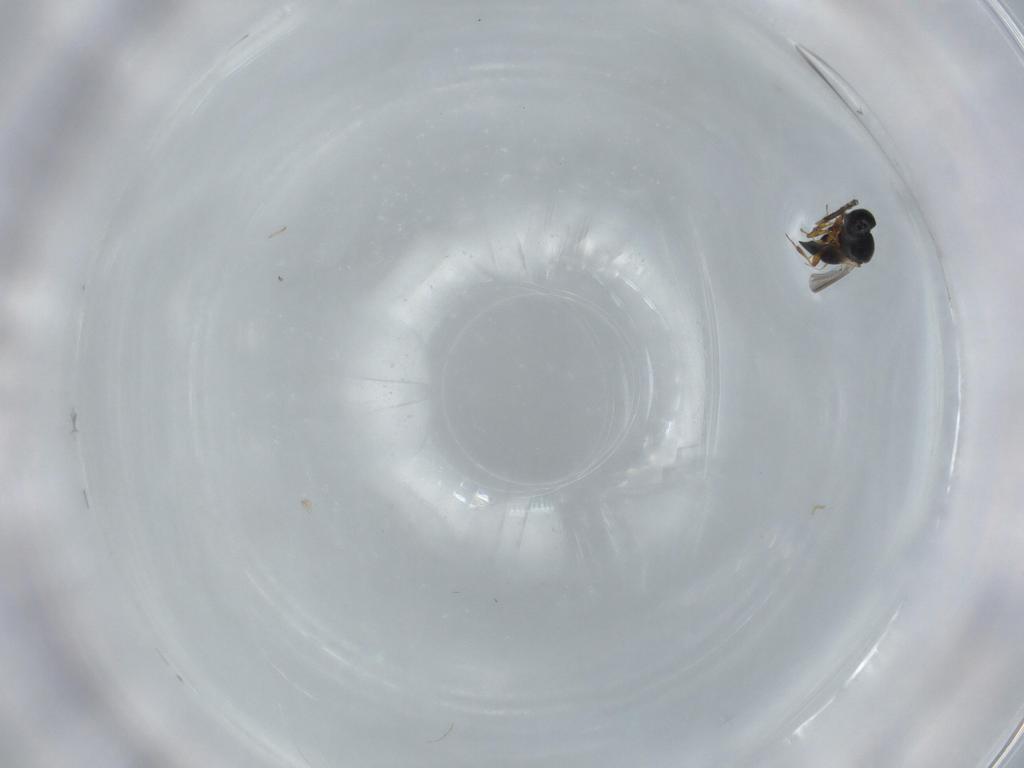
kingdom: Animalia
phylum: Arthropoda
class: Insecta
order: Hymenoptera
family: Platygastridae
